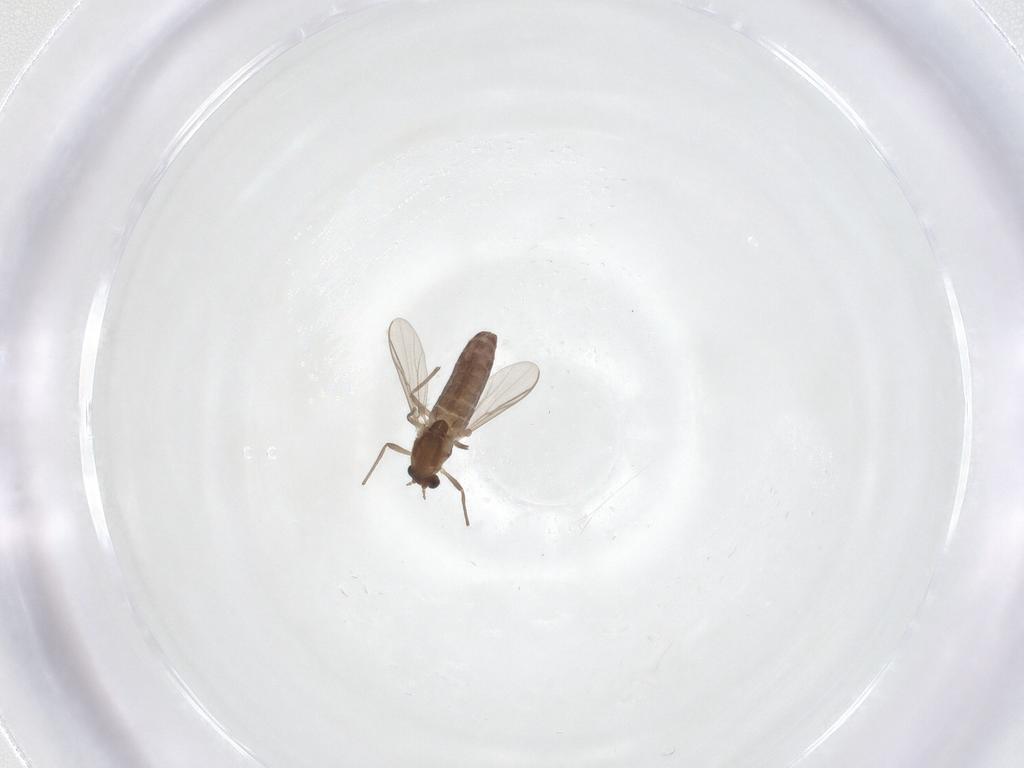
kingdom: Animalia
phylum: Arthropoda
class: Insecta
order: Diptera
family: Chironomidae
